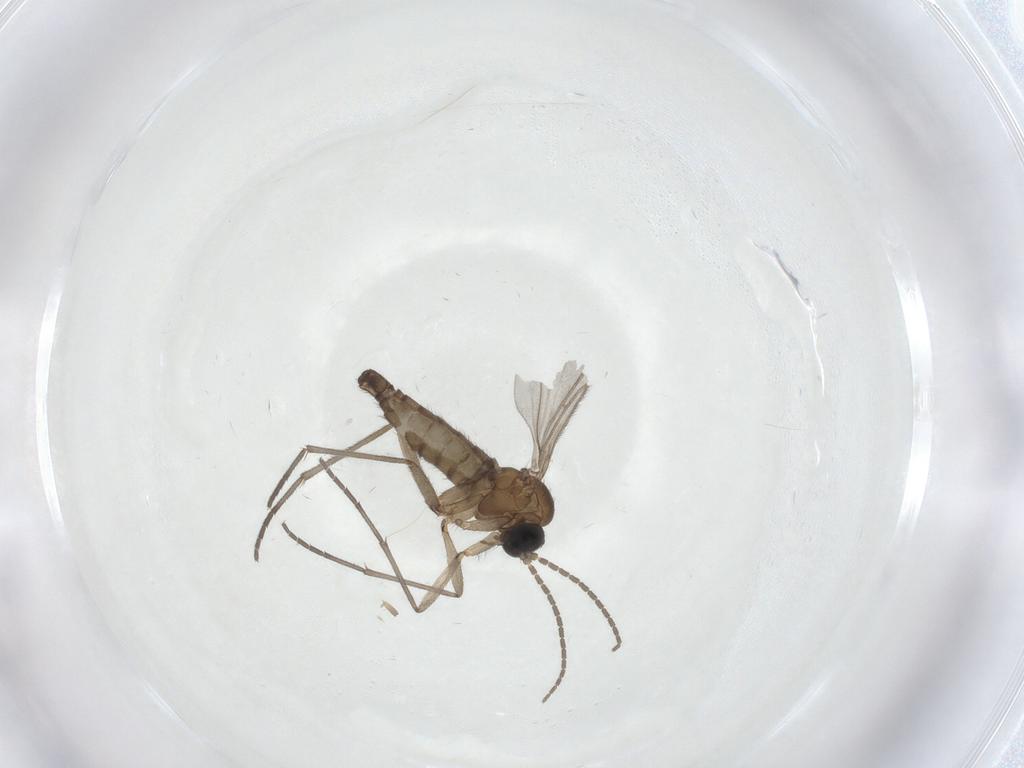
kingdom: Animalia
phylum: Arthropoda
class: Insecta
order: Diptera
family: Sciaridae
